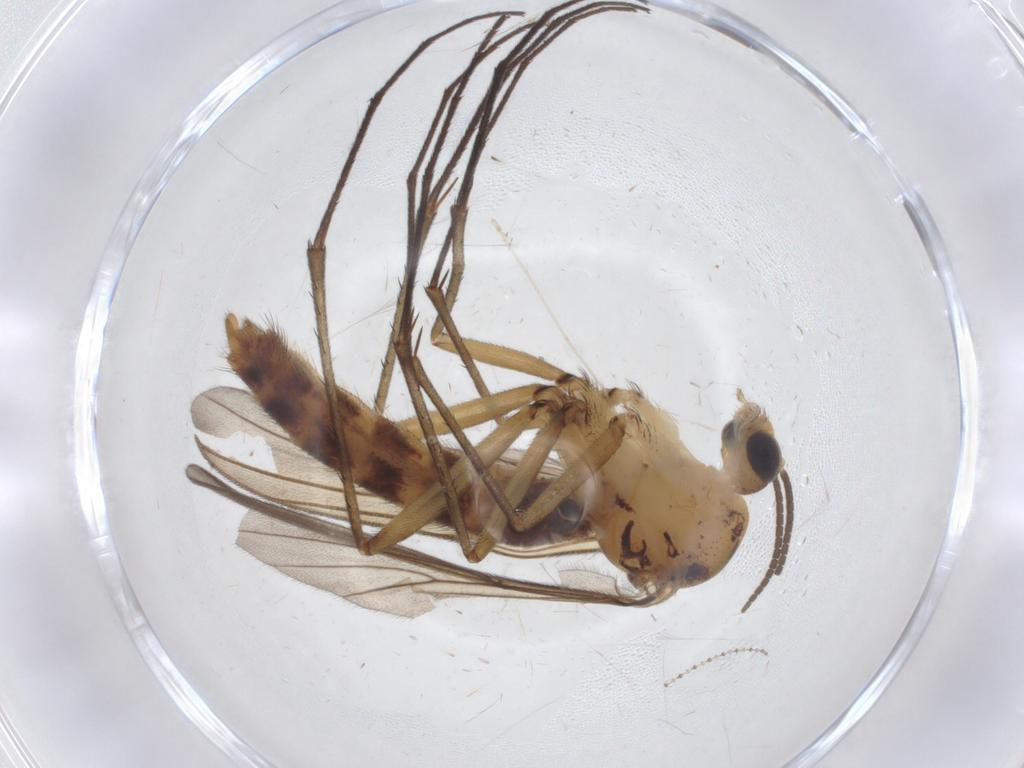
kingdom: Animalia
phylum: Arthropoda
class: Insecta
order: Diptera
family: Mycetophilidae
